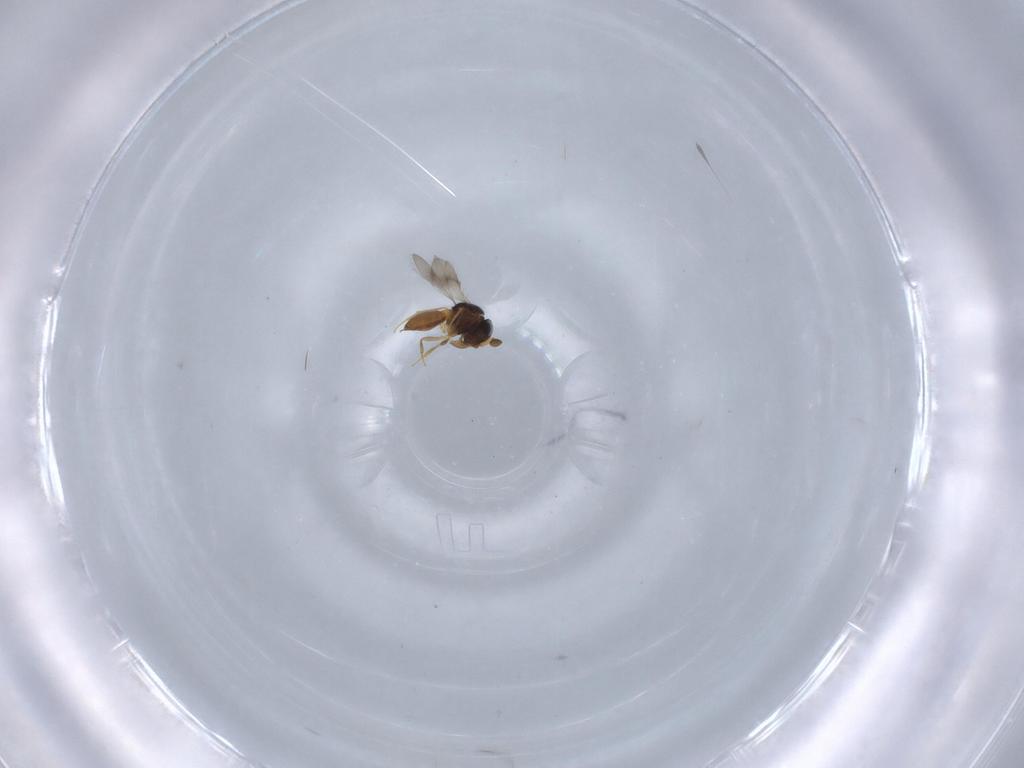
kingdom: Animalia
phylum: Arthropoda
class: Insecta
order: Hymenoptera
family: Scelionidae
